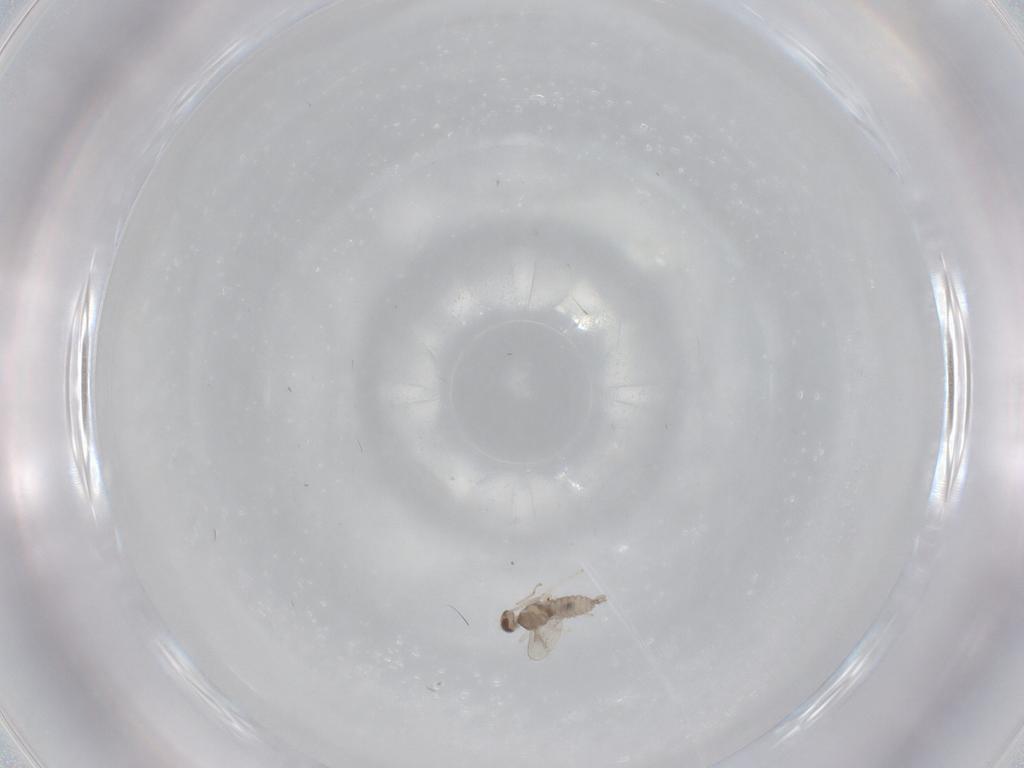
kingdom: Animalia
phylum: Arthropoda
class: Insecta
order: Diptera
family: Cecidomyiidae
